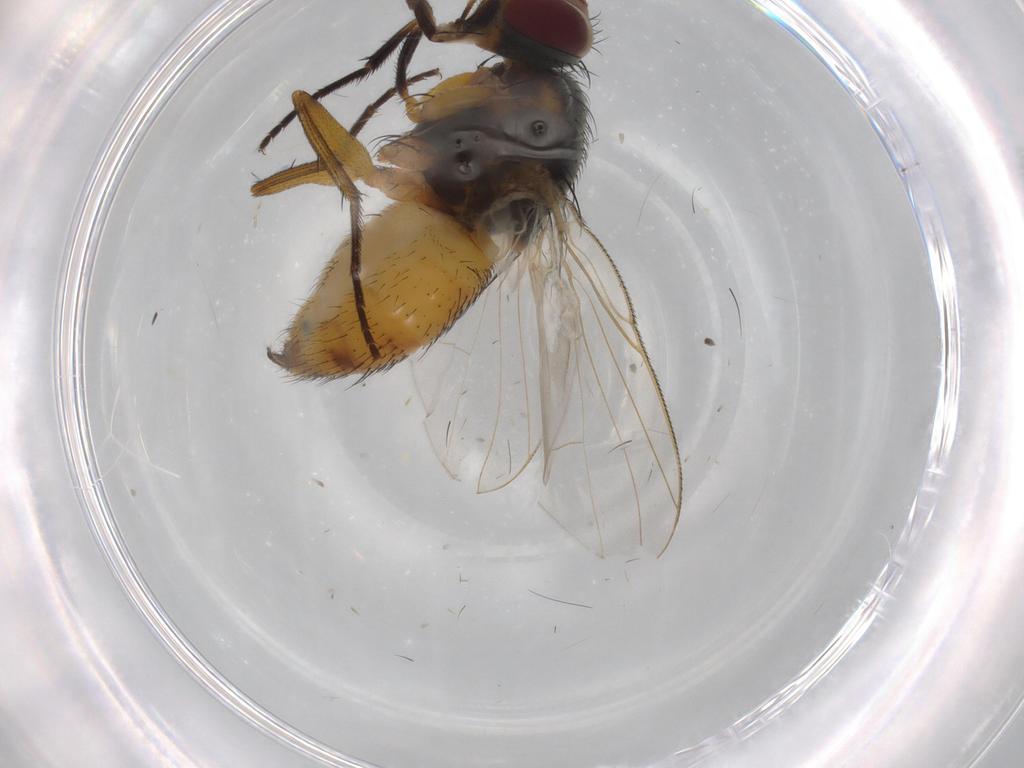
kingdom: Animalia
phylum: Arthropoda
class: Insecta
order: Diptera
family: Muscidae
